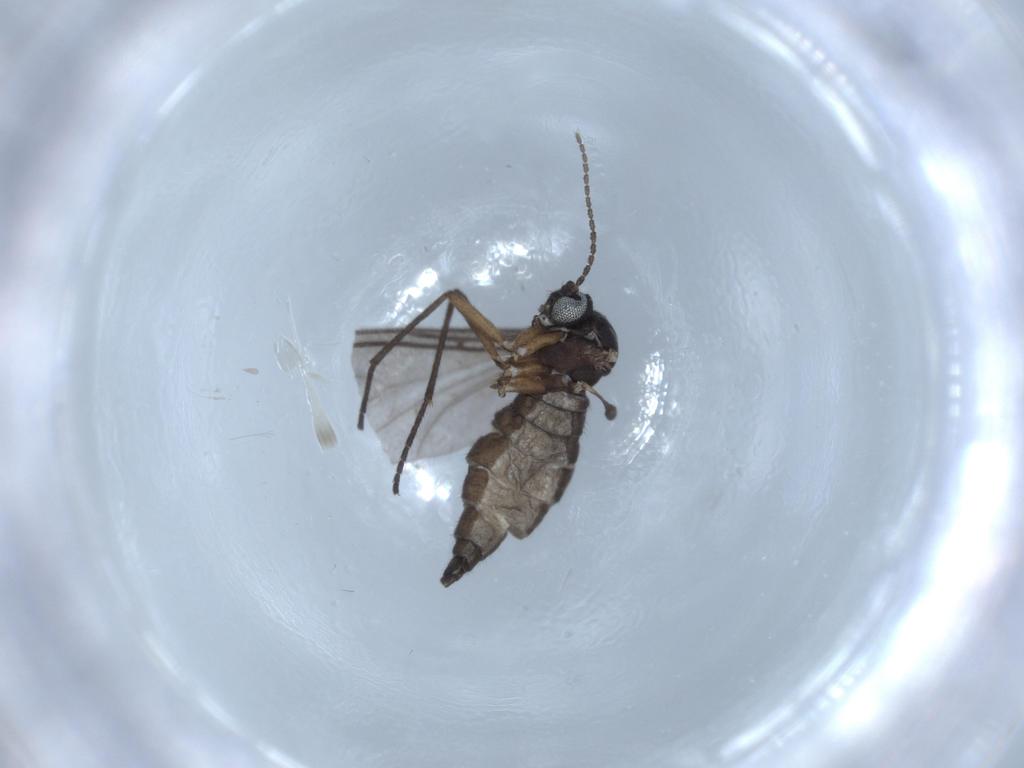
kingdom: Animalia
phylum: Arthropoda
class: Insecta
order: Diptera
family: Sciaridae
